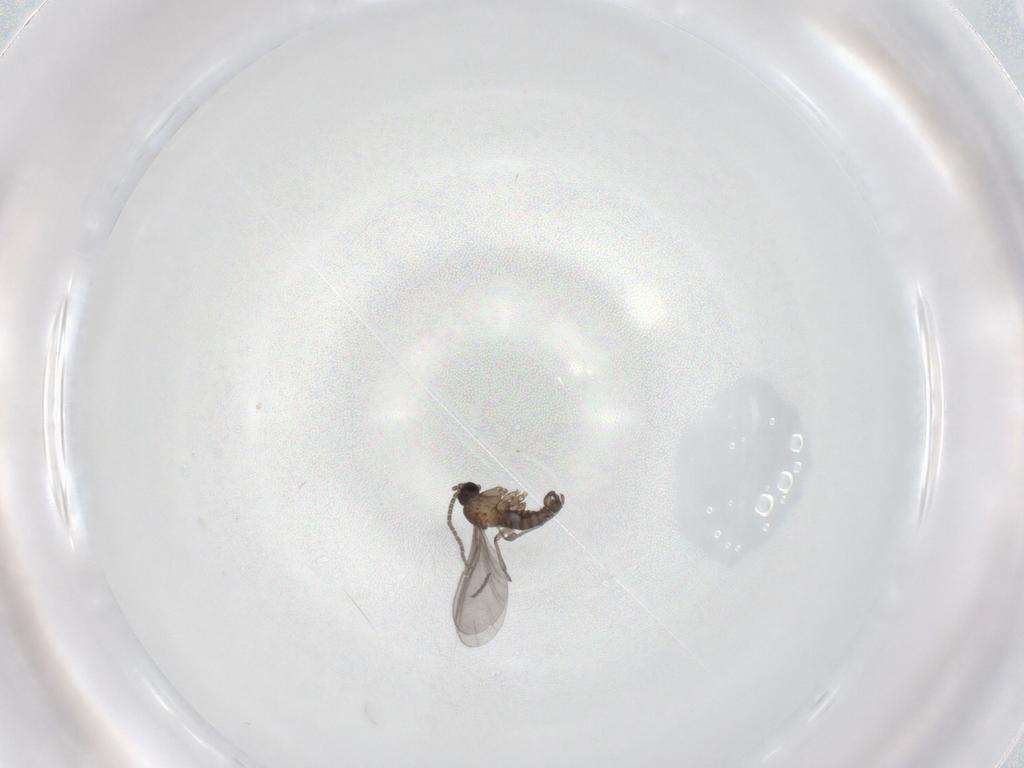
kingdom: Animalia
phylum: Arthropoda
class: Insecta
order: Diptera
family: Sciaridae
